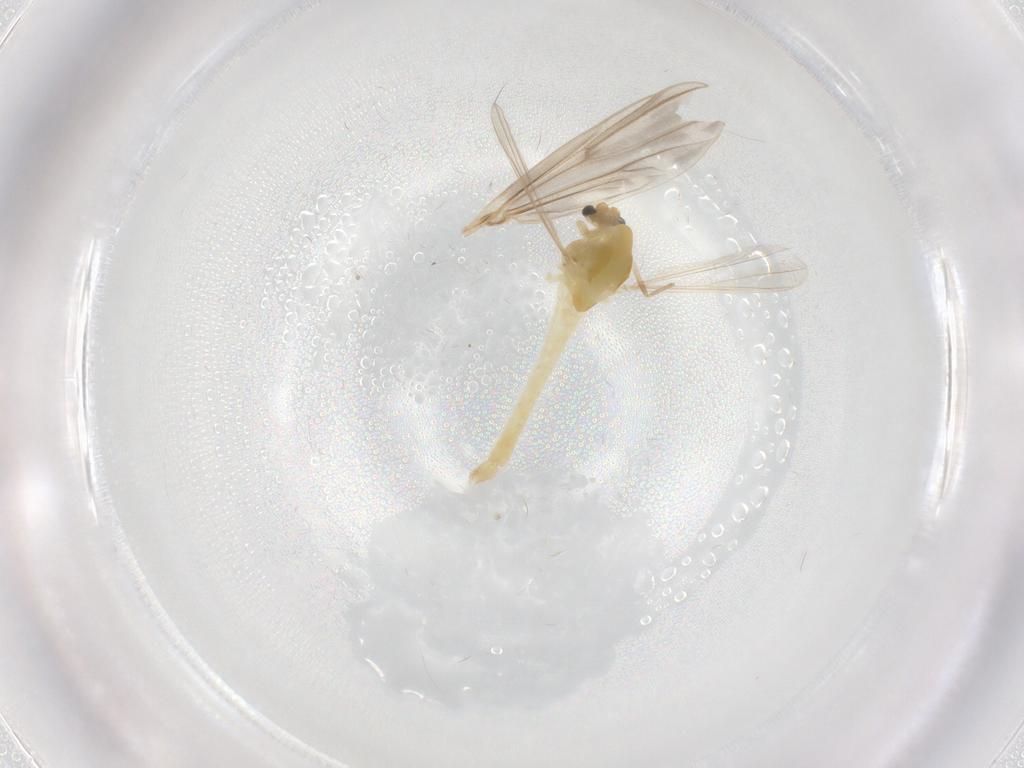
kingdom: Animalia
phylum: Arthropoda
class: Insecta
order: Diptera
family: Chironomidae
